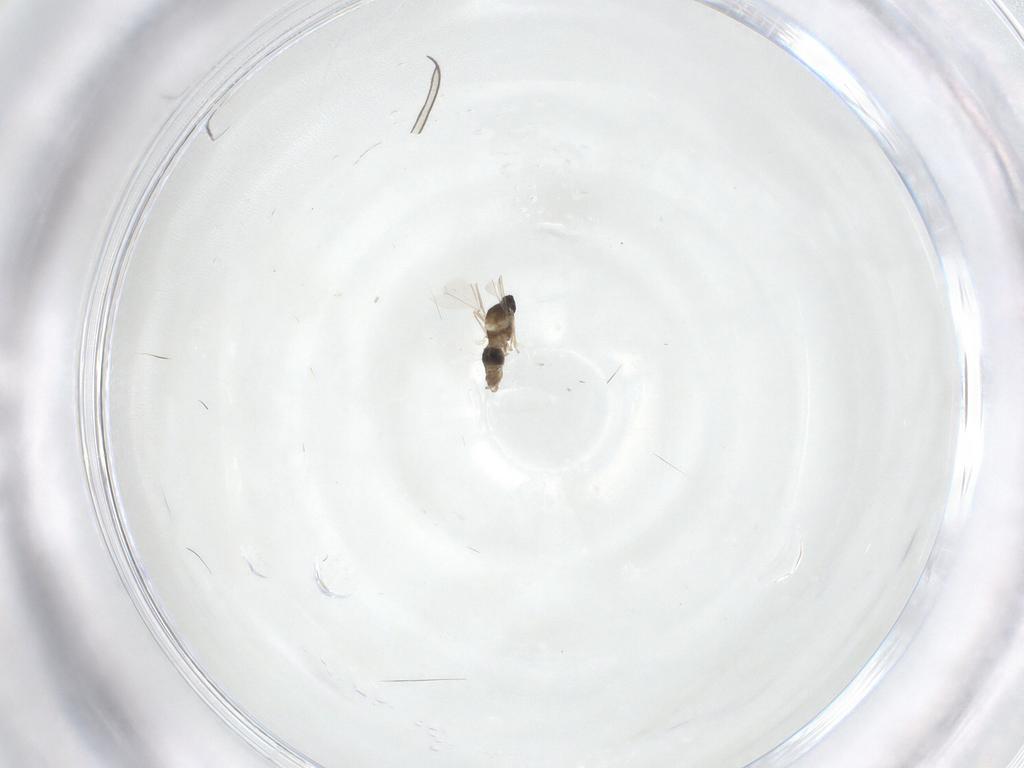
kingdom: Animalia
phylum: Arthropoda
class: Insecta
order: Diptera
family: Cecidomyiidae
